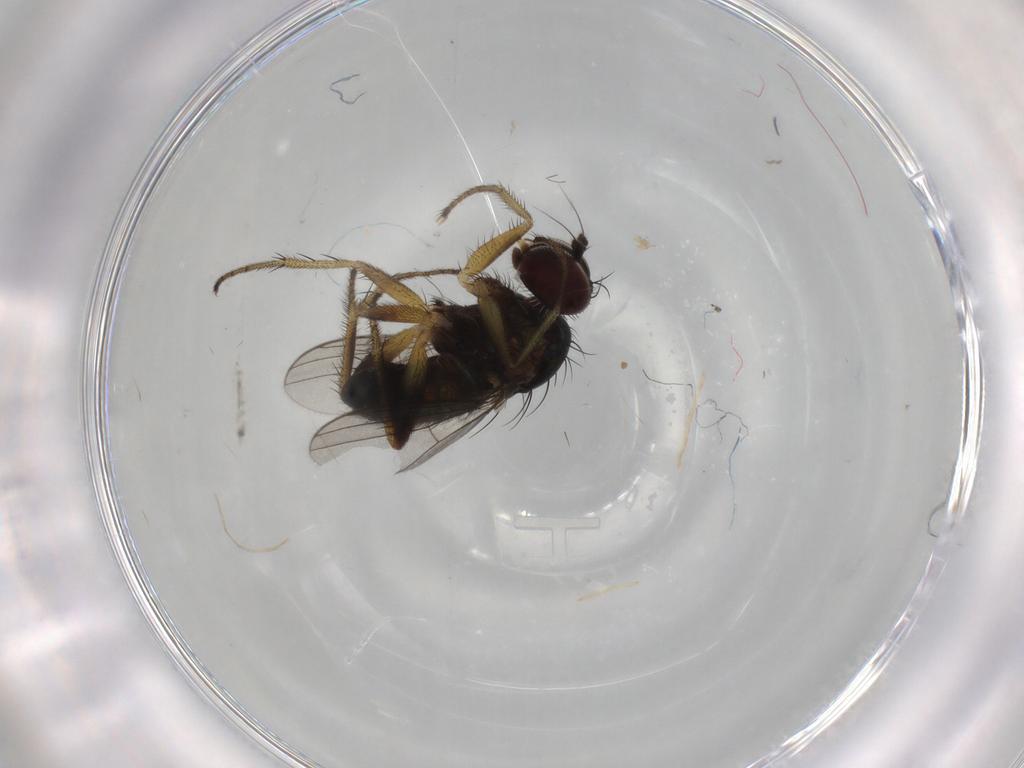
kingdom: Animalia
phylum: Arthropoda
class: Insecta
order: Diptera
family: Dolichopodidae
